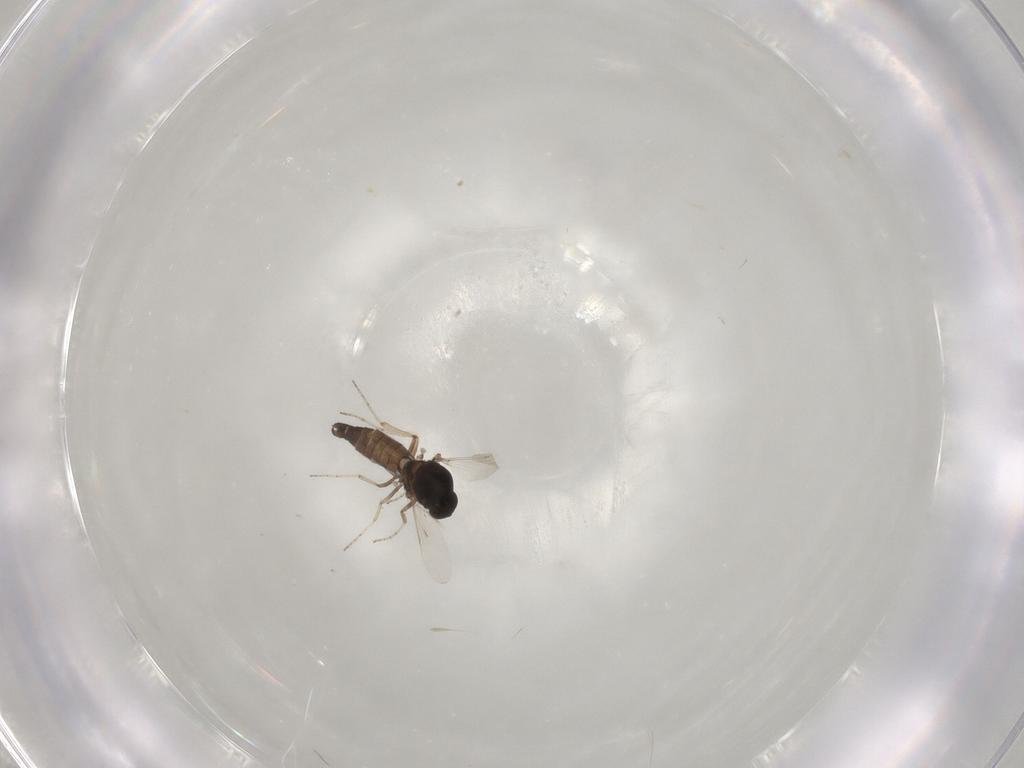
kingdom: Animalia
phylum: Arthropoda
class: Insecta
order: Diptera
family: Ceratopogonidae
